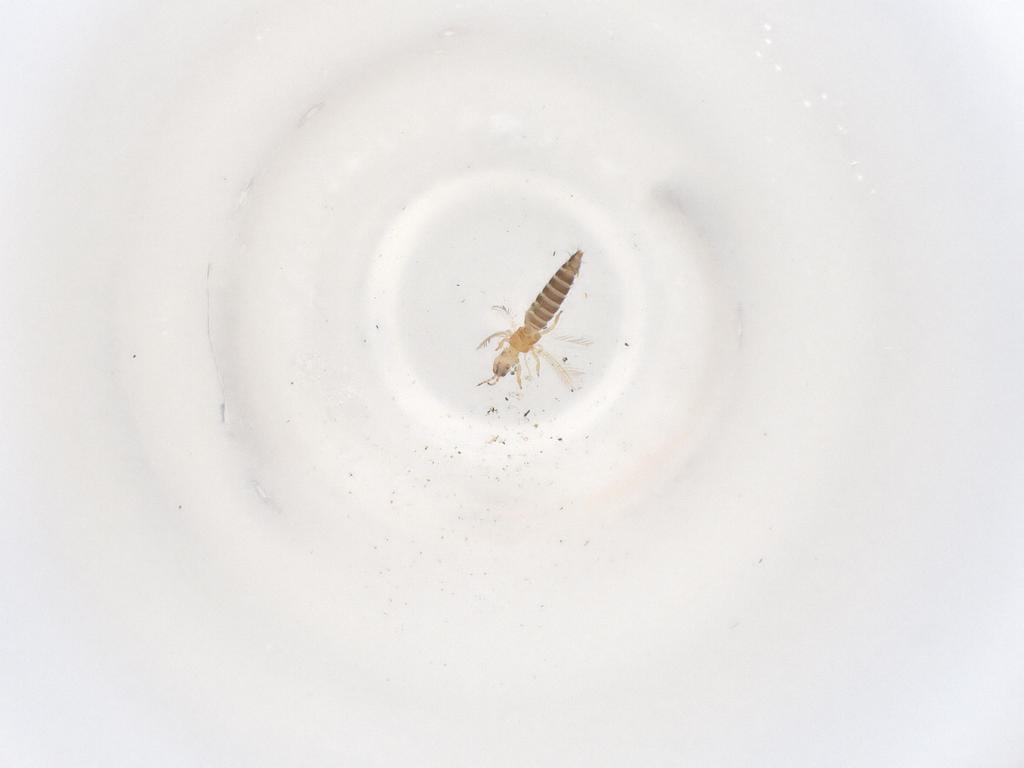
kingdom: Animalia
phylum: Arthropoda
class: Insecta
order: Thysanoptera
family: Thripidae
